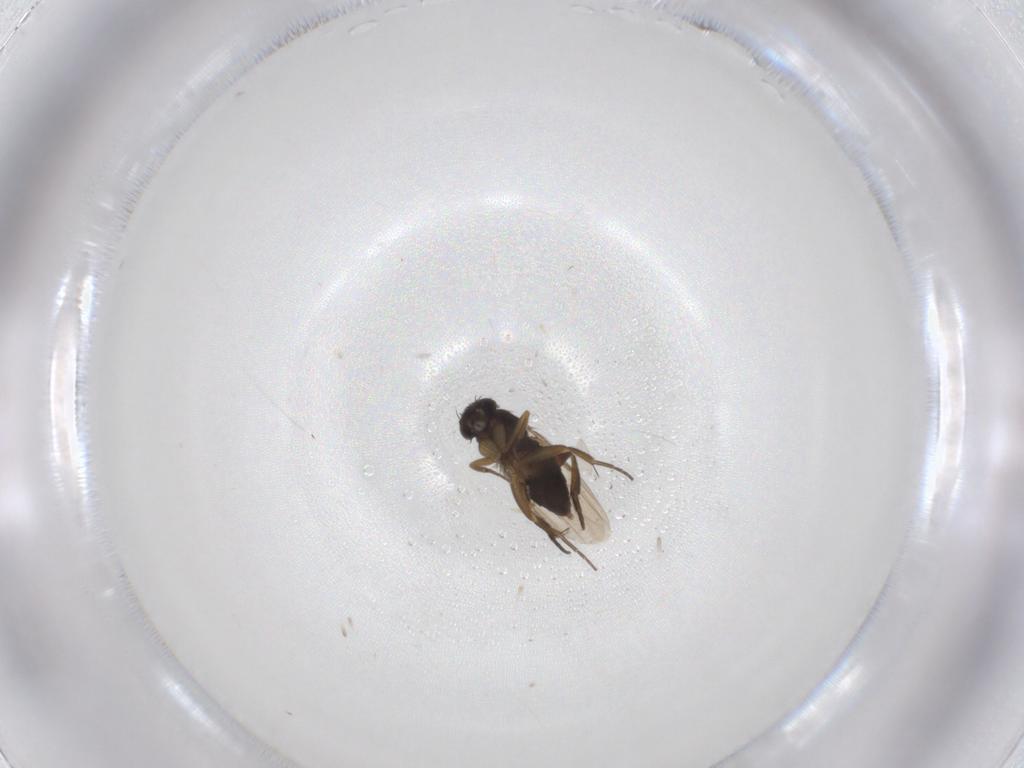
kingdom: Animalia
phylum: Arthropoda
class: Insecta
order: Diptera
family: Phoridae
